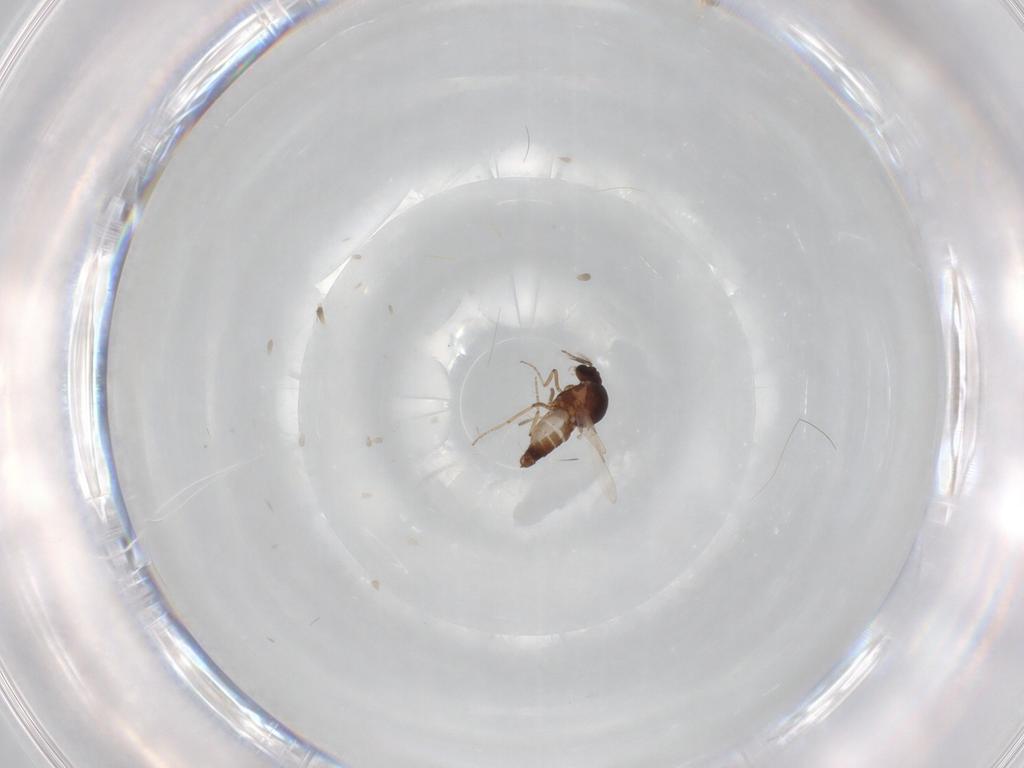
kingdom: Animalia
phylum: Arthropoda
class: Insecta
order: Diptera
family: Ceratopogonidae
